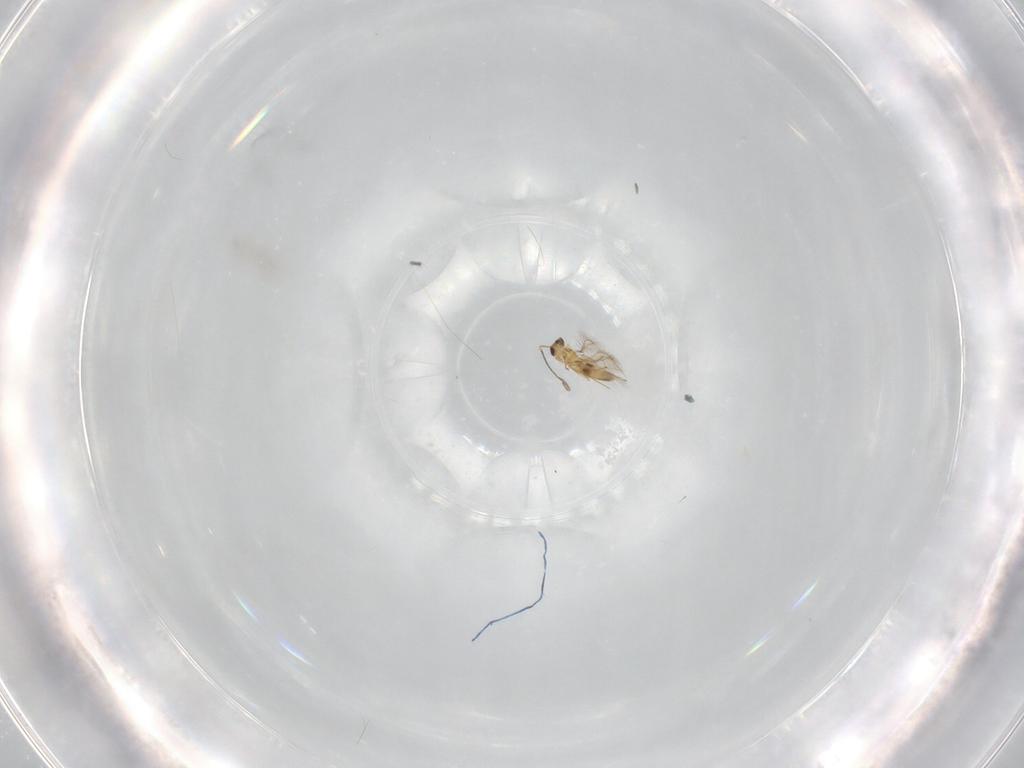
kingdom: Animalia
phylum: Arthropoda
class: Insecta
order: Hymenoptera
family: Mymaridae
